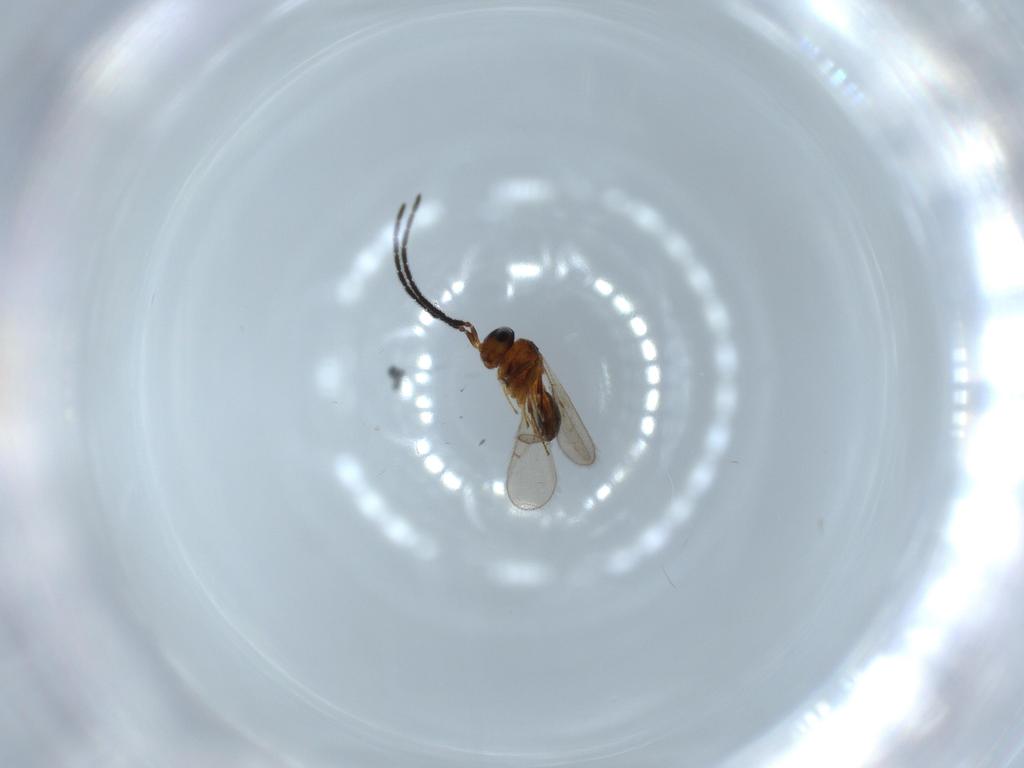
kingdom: Animalia
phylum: Arthropoda
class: Insecta
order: Hymenoptera
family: Scelionidae
